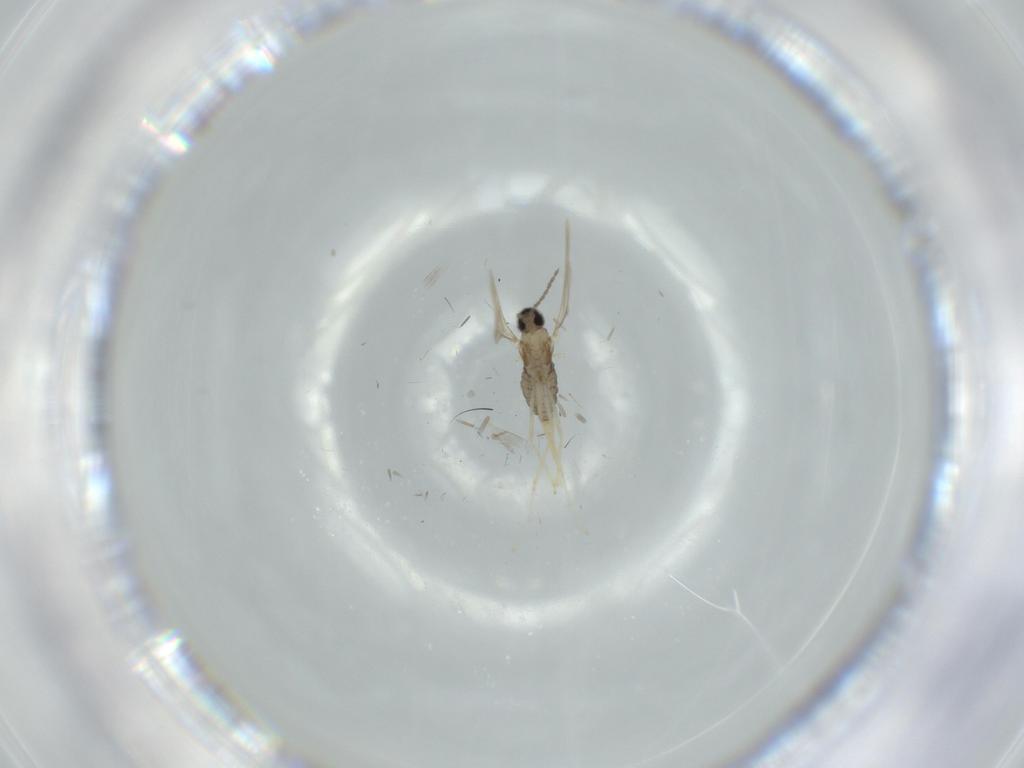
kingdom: Animalia
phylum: Arthropoda
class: Insecta
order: Diptera
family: Cecidomyiidae
